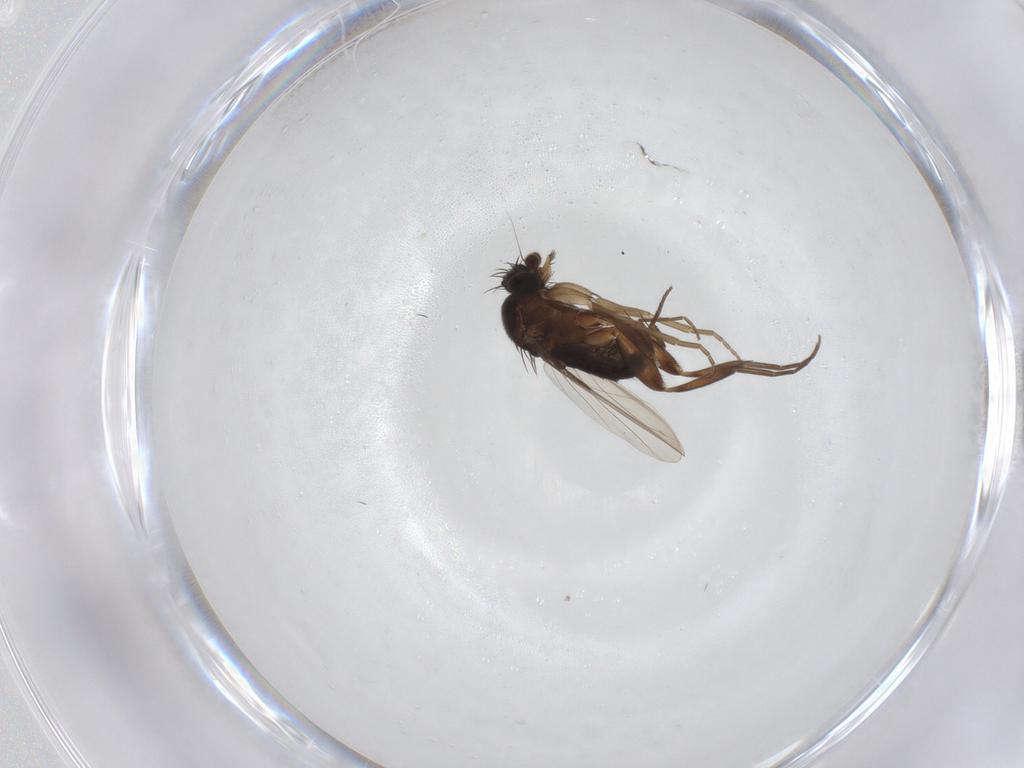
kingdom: Animalia
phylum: Arthropoda
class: Insecta
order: Diptera
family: Phoridae
